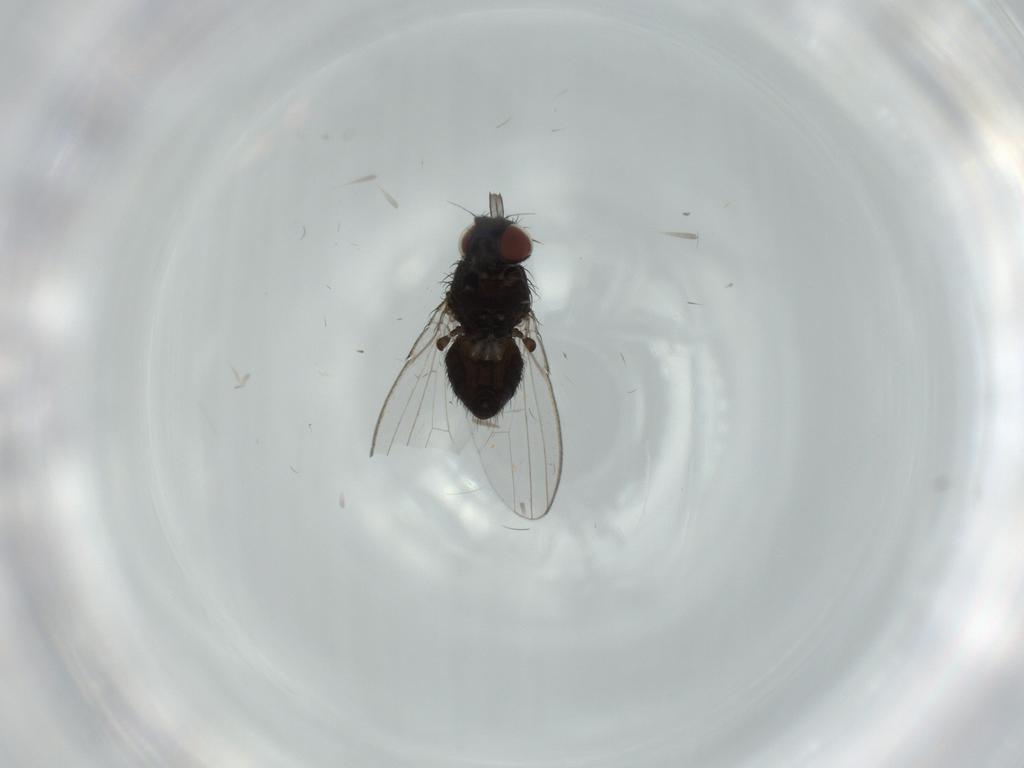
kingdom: Animalia
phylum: Arthropoda
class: Insecta
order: Diptera
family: Milichiidae
